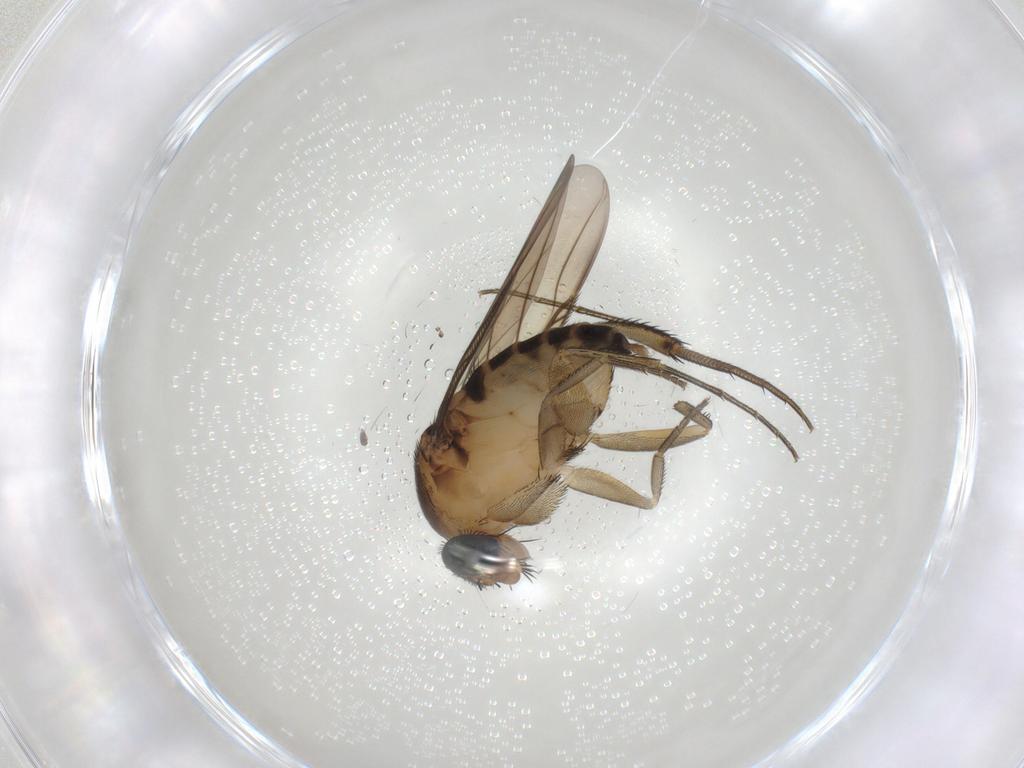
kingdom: Animalia
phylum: Arthropoda
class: Insecta
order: Diptera
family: Chironomidae
